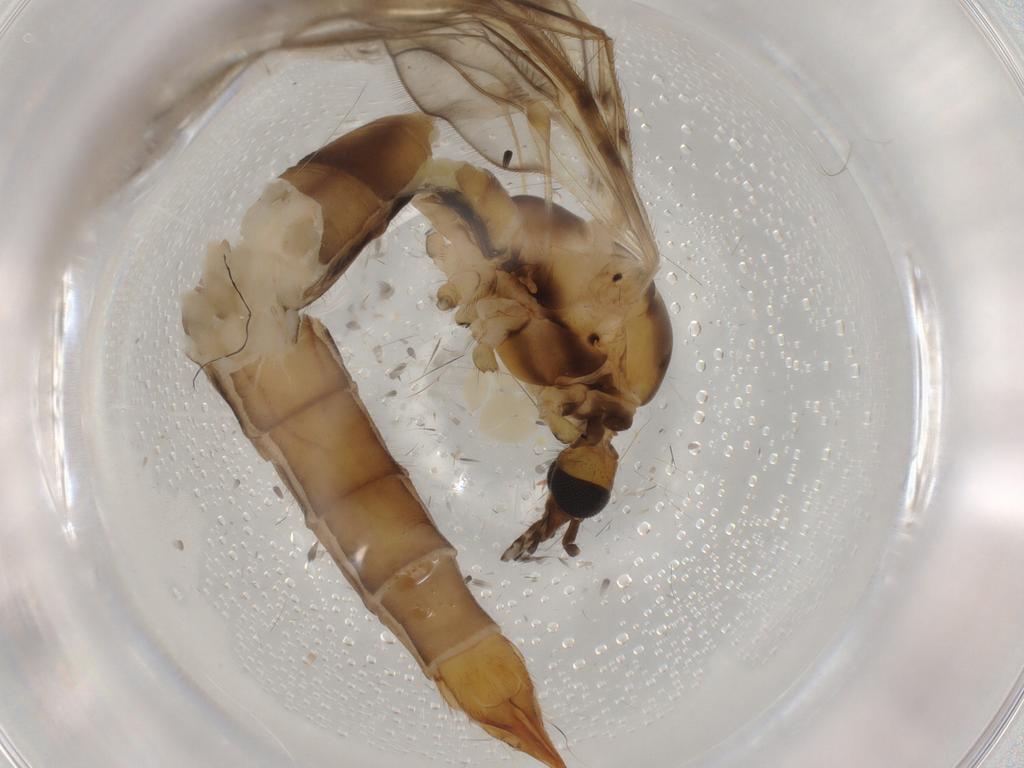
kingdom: Animalia
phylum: Arthropoda
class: Insecta
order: Diptera
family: Sciaridae
